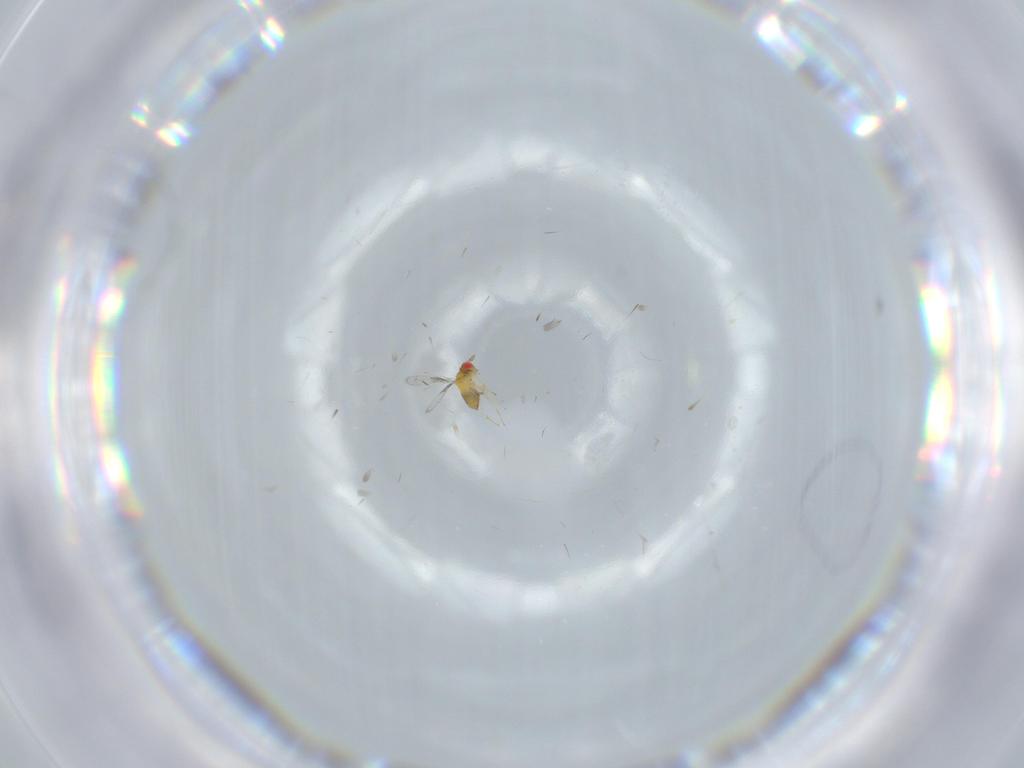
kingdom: Animalia
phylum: Arthropoda
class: Insecta
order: Hymenoptera
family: Trichogrammatidae
